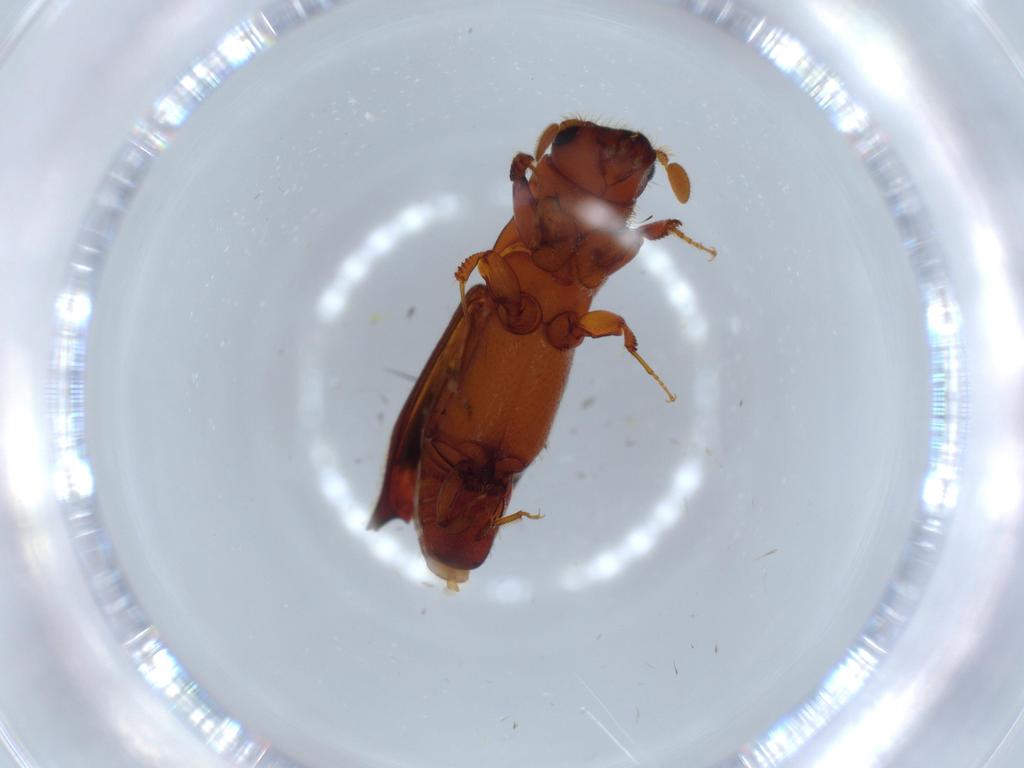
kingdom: Animalia
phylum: Arthropoda
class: Insecta
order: Coleoptera
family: Curculionidae
